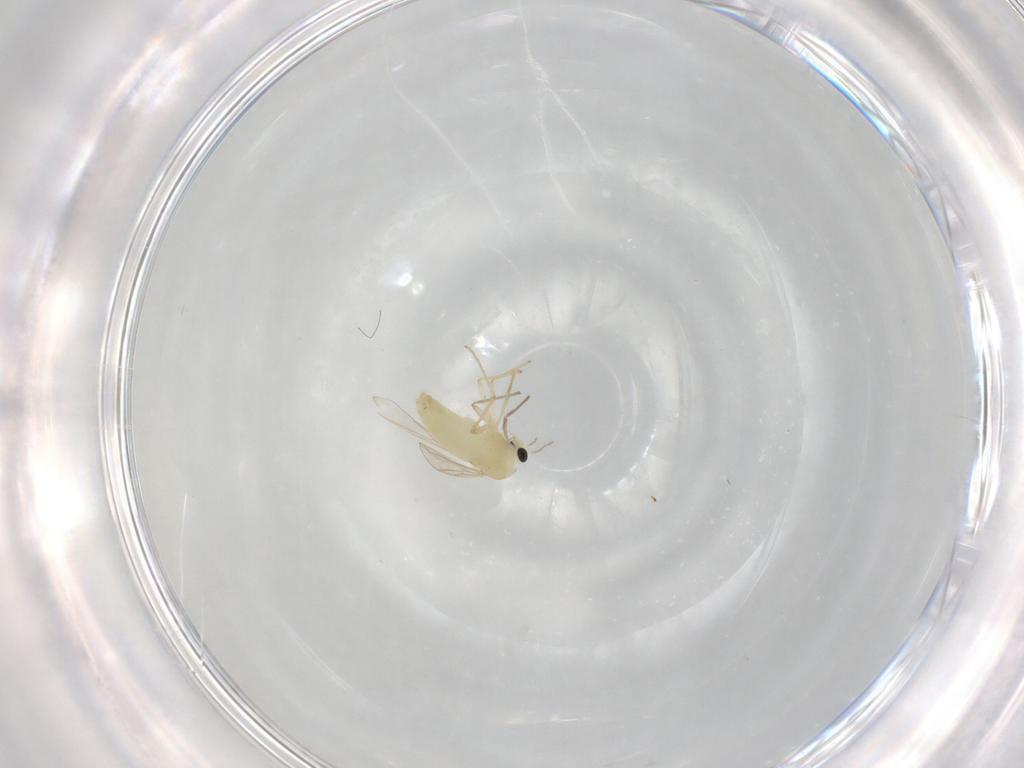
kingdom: Animalia
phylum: Arthropoda
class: Insecta
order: Diptera
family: Chironomidae
